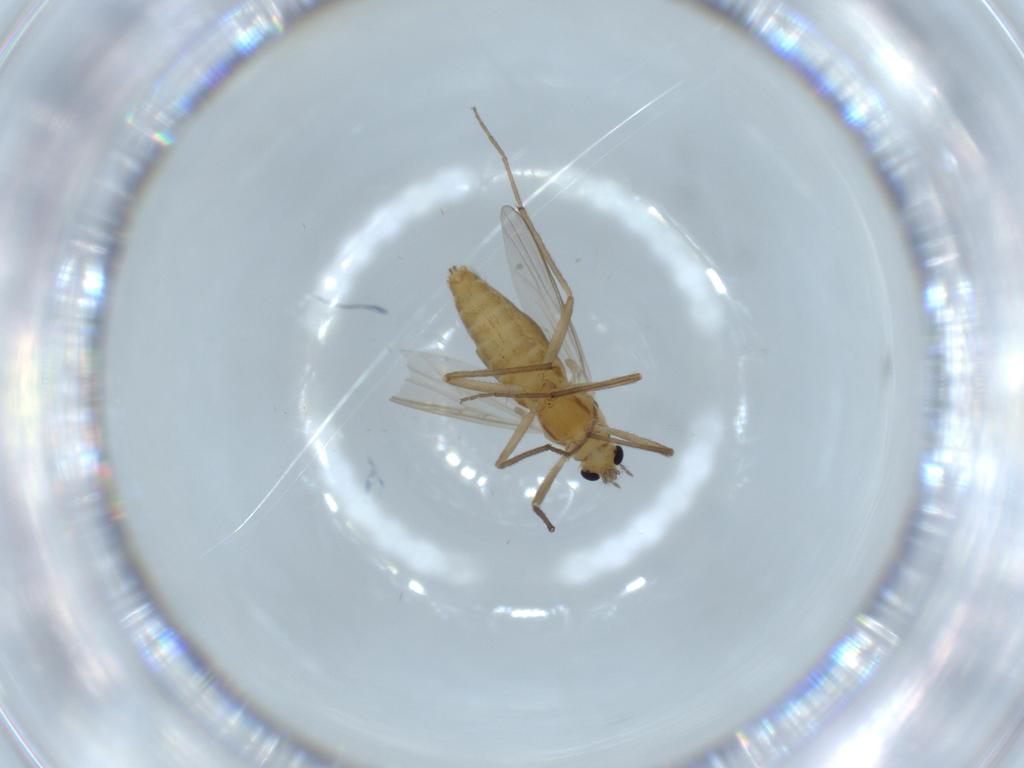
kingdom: Animalia
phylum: Arthropoda
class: Insecta
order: Diptera
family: Chironomidae
